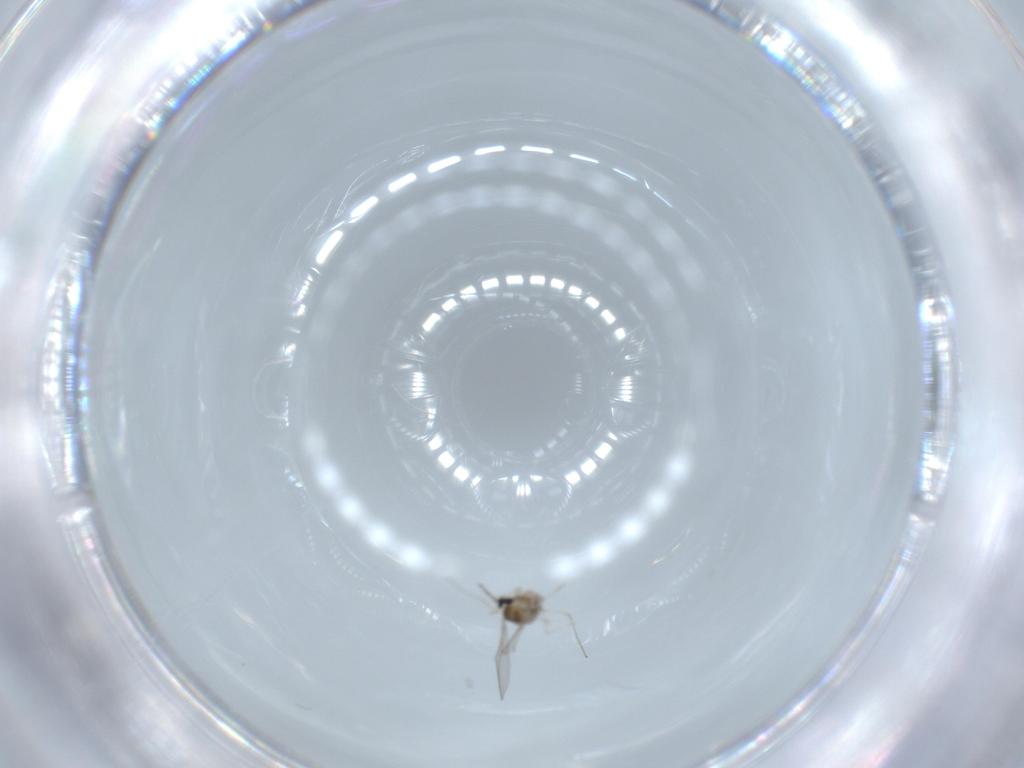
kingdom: Animalia
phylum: Arthropoda
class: Insecta
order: Diptera
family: Cecidomyiidae
